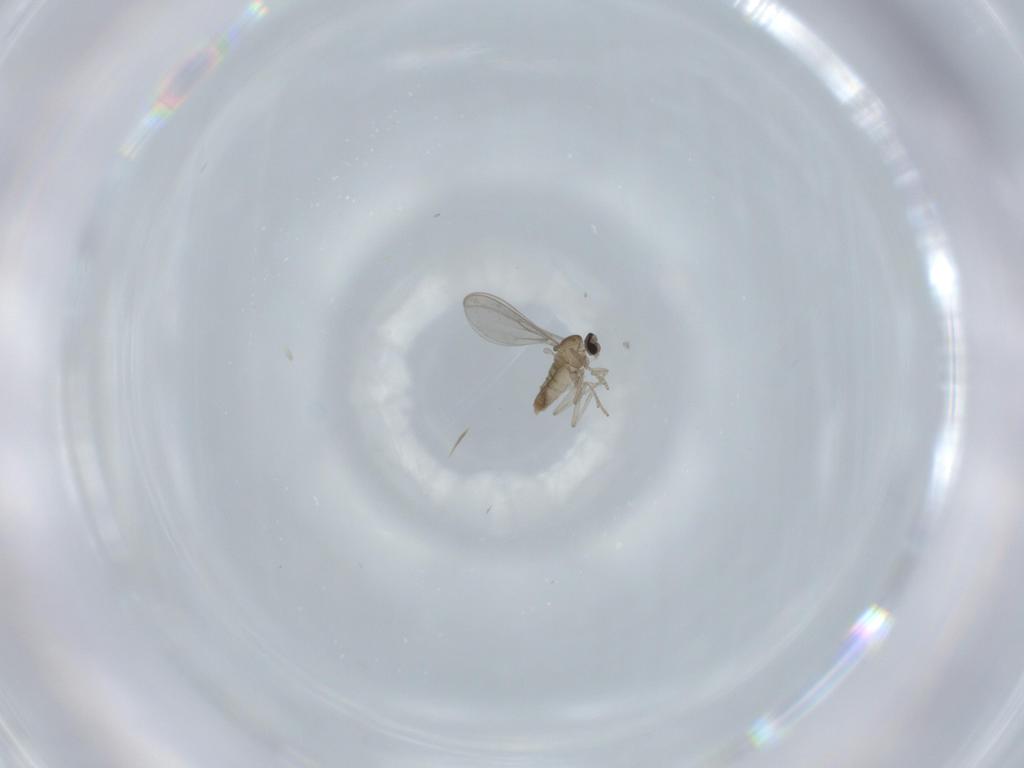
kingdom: Animalia
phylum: Arthropoda
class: Insecta
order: Diptera
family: Cecidomyiidae
